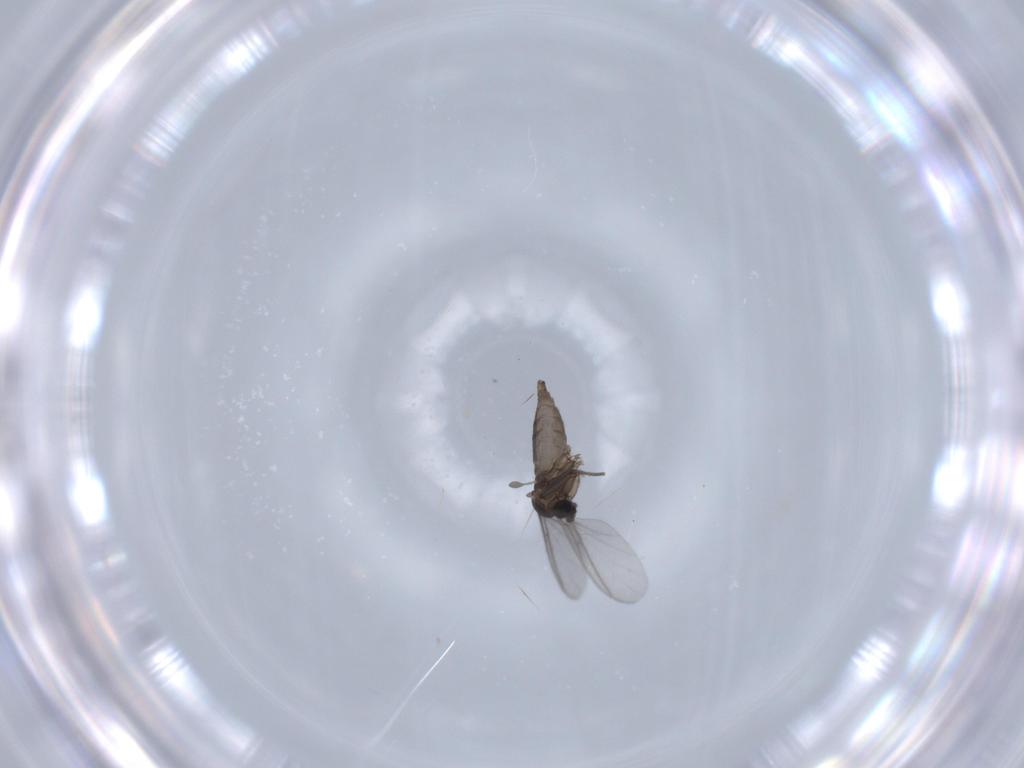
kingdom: Animalia
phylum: Arthropoda
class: Insecta
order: Diptera
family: Sciaridae
